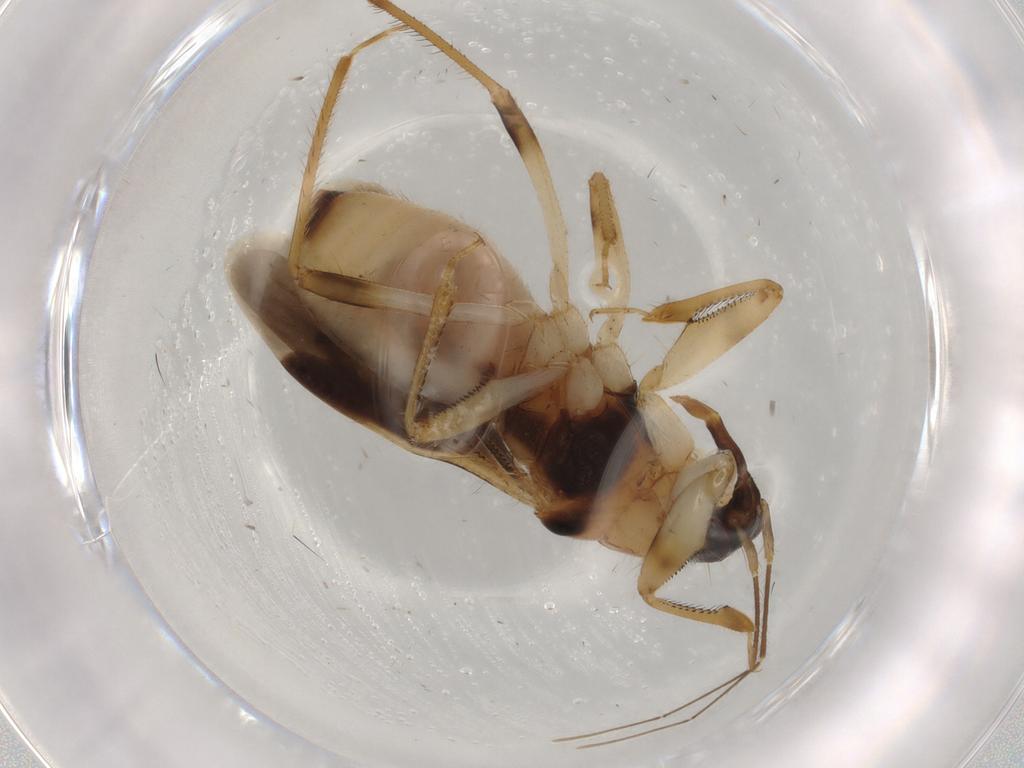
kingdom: Animalia
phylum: Arthropoda
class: Insecta
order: Hemiptera
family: Nabidae
